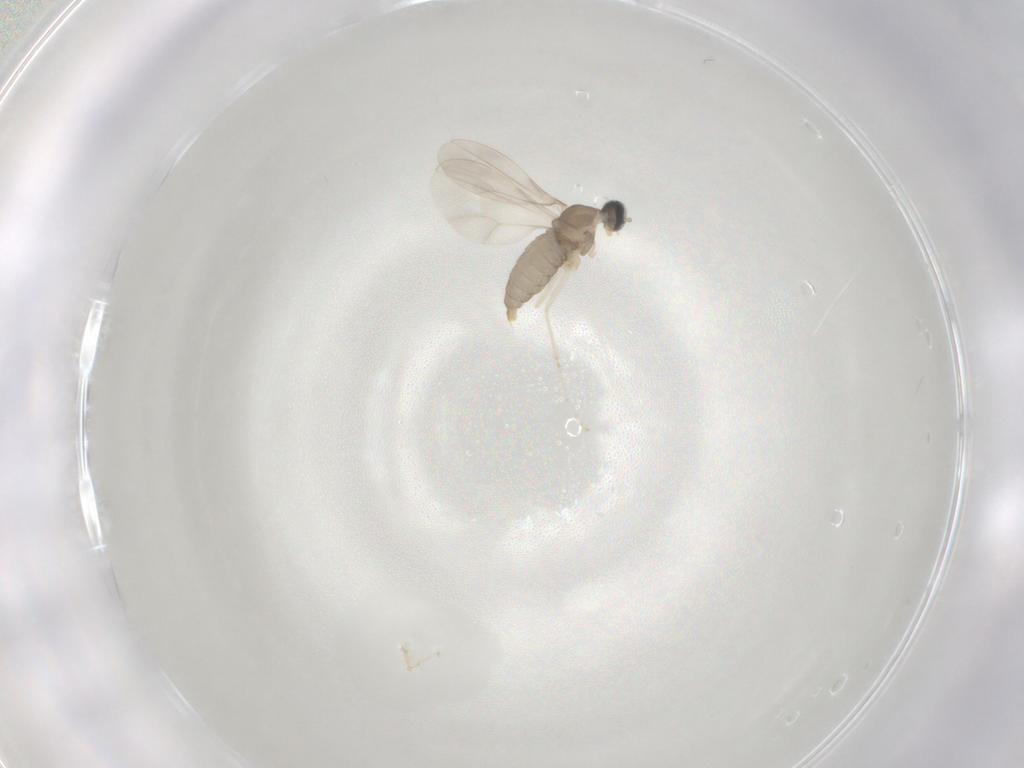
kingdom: Animalia
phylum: Arthropoda
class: Insecta
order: Diptera
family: Cecidomyiidae
